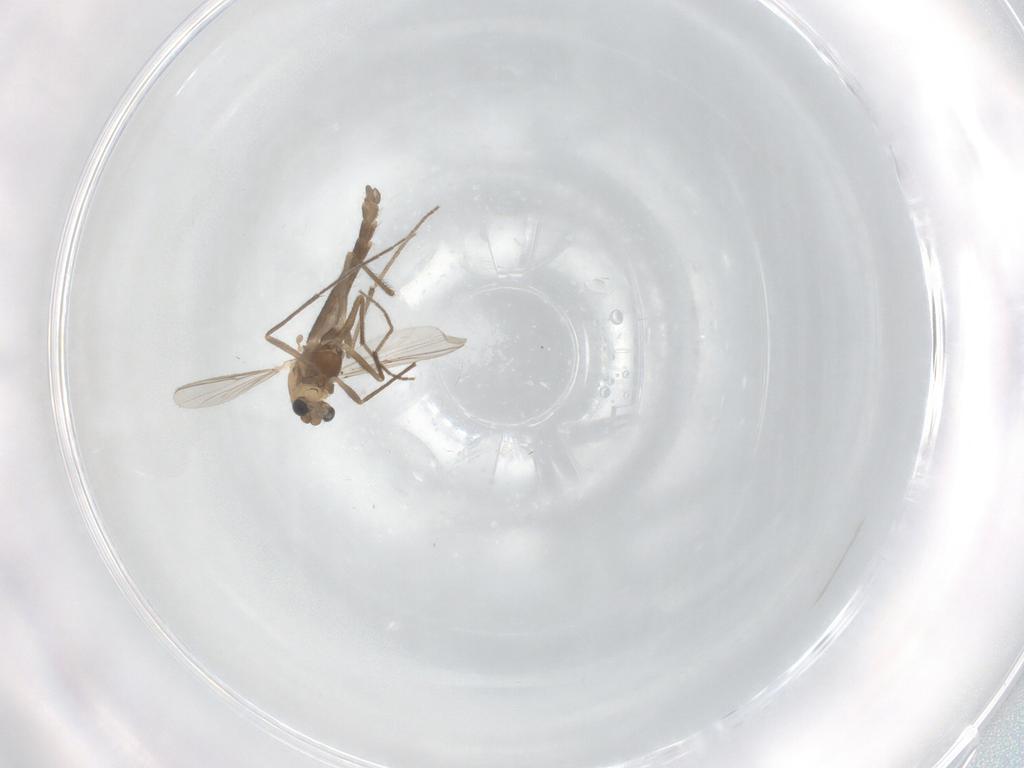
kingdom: Animalia
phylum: Arthropoda
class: Insecta
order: Diptera
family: Chironomidae
